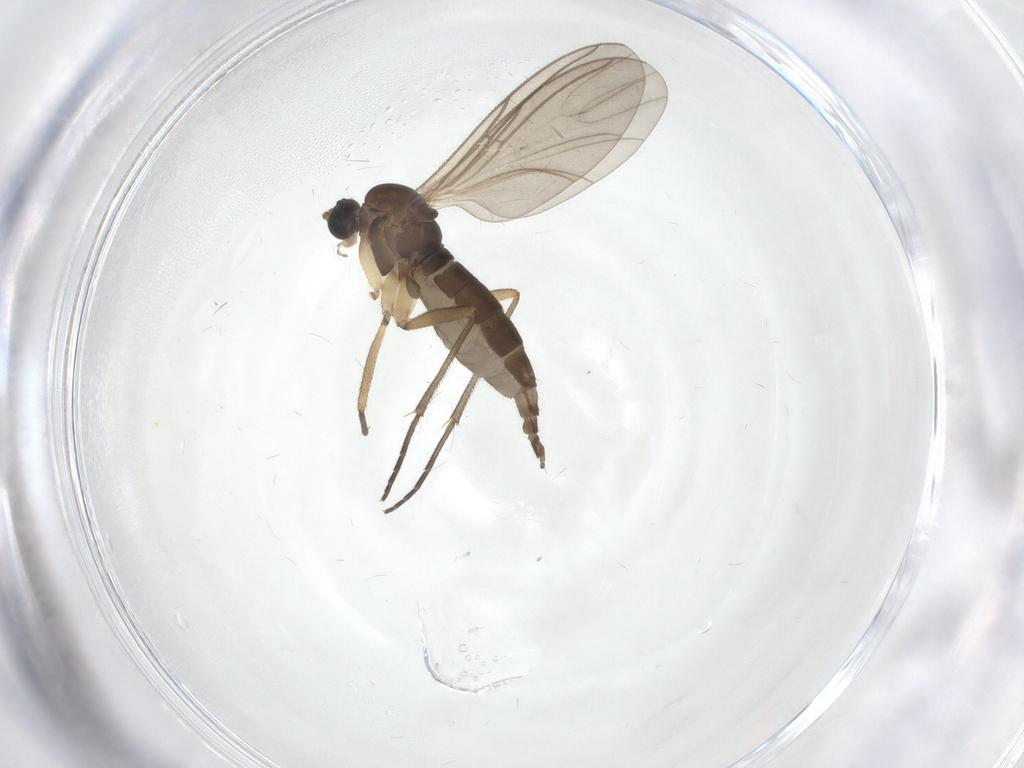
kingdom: Animalia
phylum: Arthropoda
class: Insecta
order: Diptera
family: Sciaridae
